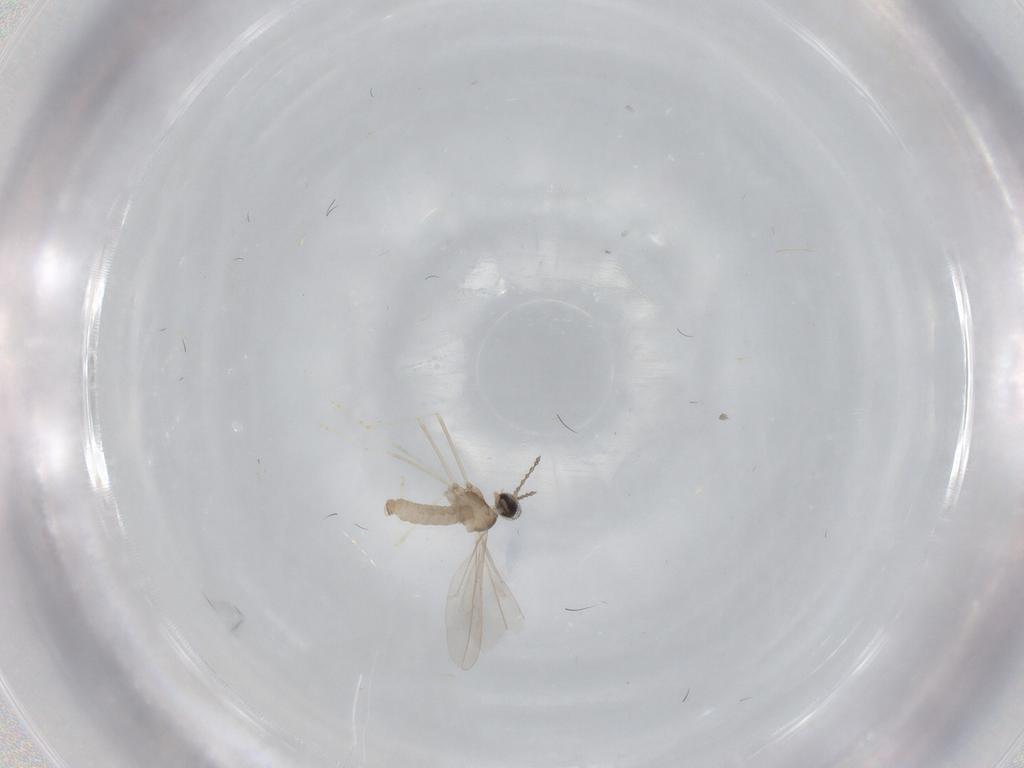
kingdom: Animalia
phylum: Arthropoda
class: Insecta
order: Diptera
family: Cecidomyiidae
